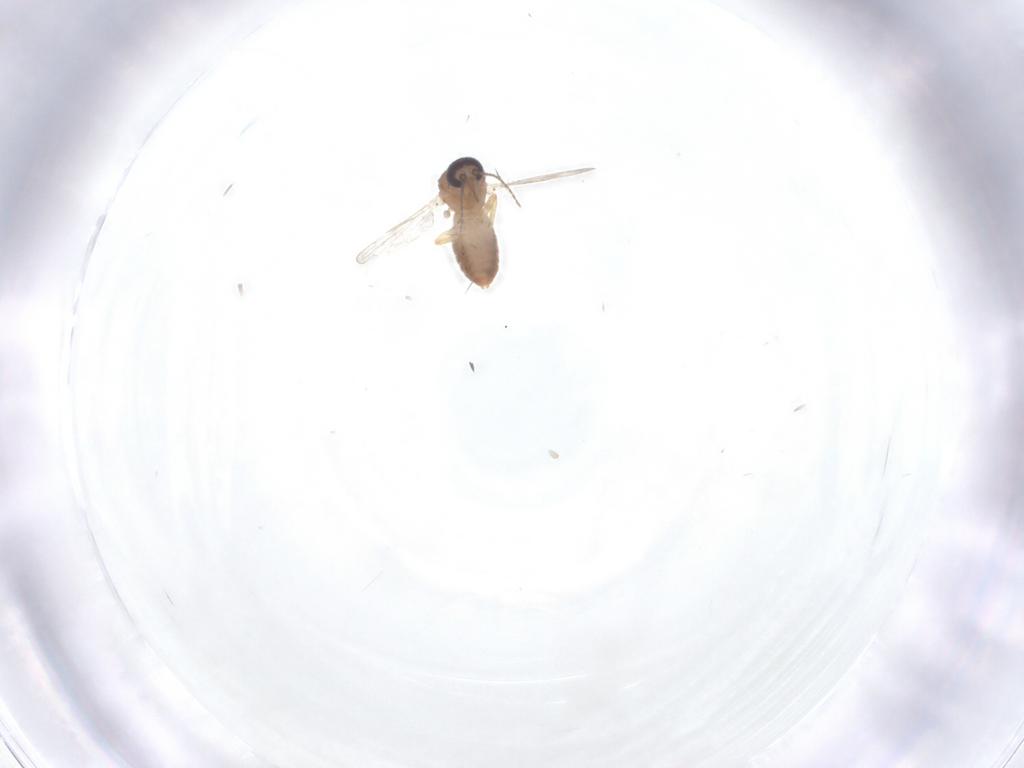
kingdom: Animalia
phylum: Arthropoda
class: Insecta
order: Diptera
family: Ceratopogonidae
